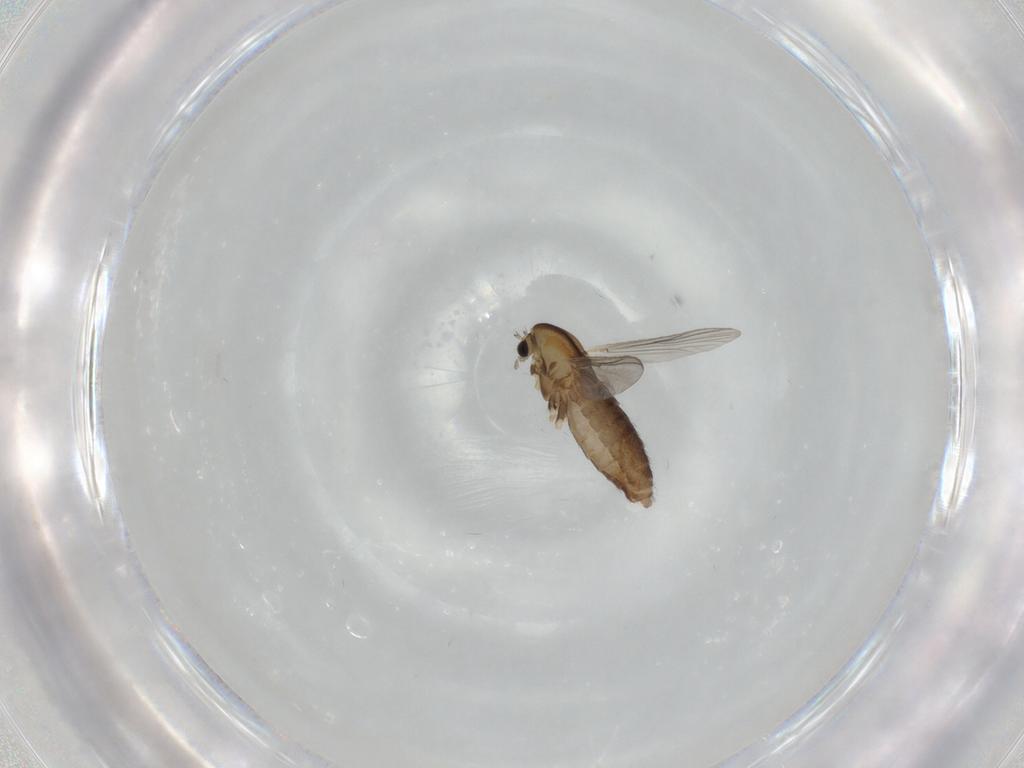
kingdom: Animalia
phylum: Arthropoda
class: Insecta
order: Diptera
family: Chironomidae
